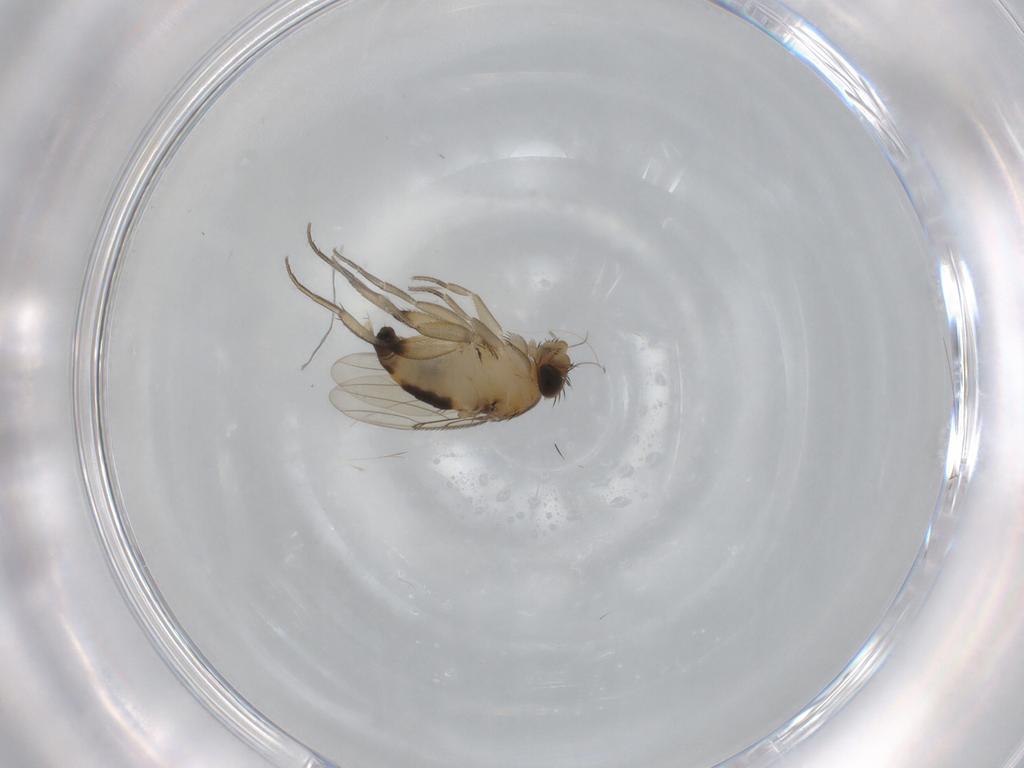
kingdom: Animalia
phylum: Arthropoda
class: Insecta
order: Diptera
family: Phoridae
